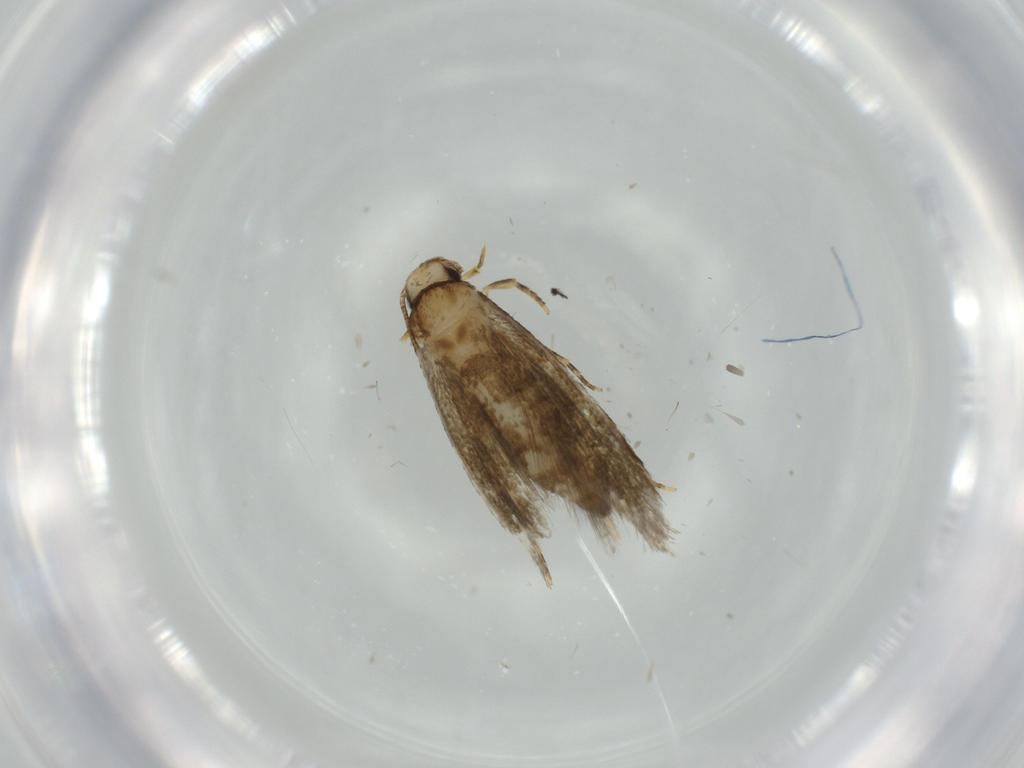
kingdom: Animalia
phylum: Arthropoda
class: Insecta
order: Lepidoptera
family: Tineidae
